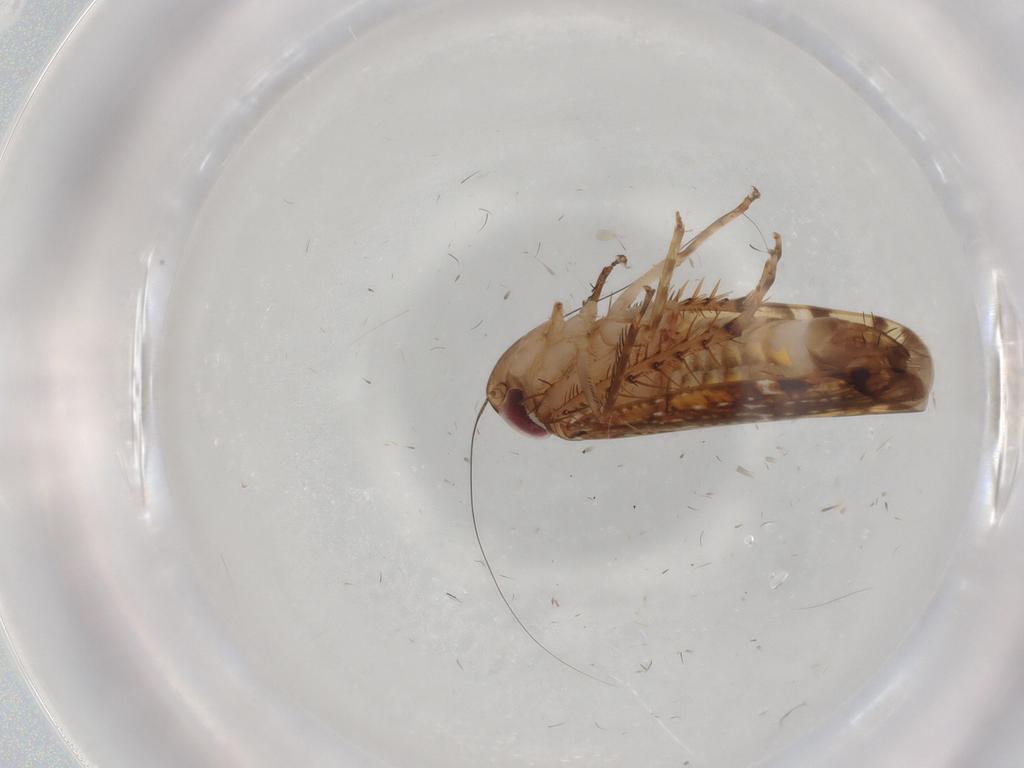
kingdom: Animalia
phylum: Arthropoda
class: Insecta
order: Hemiptera
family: Cicadellidae
